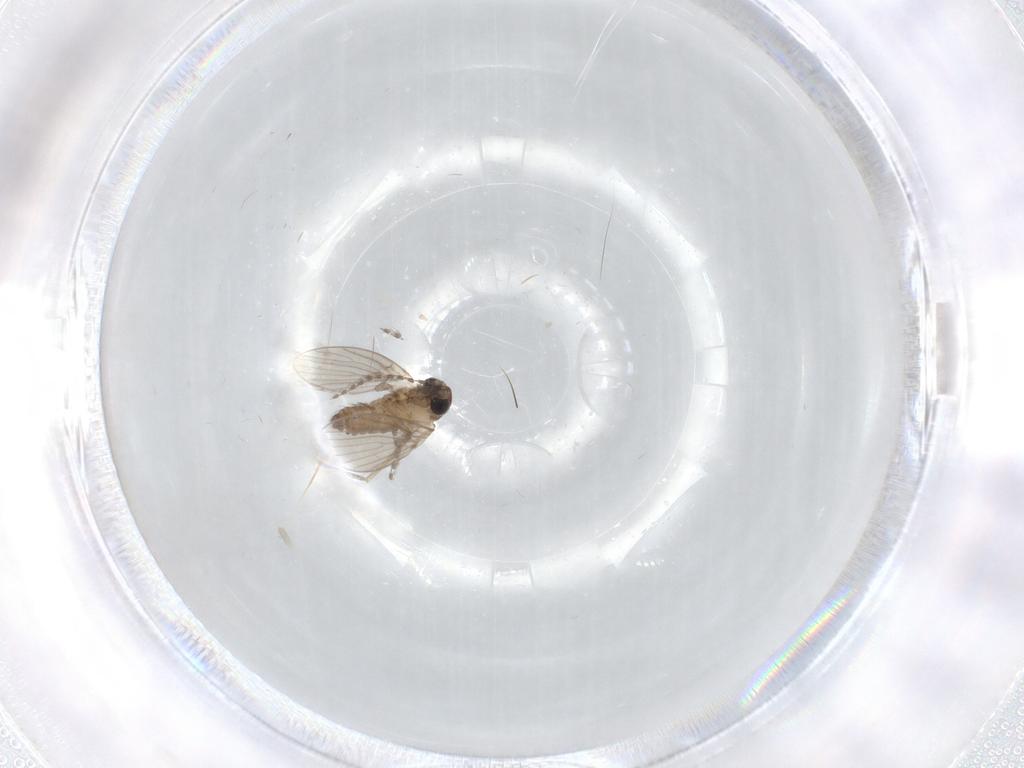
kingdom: Animalia
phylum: Arthropoda
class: Insecta
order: Diptera
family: Psychodidae
